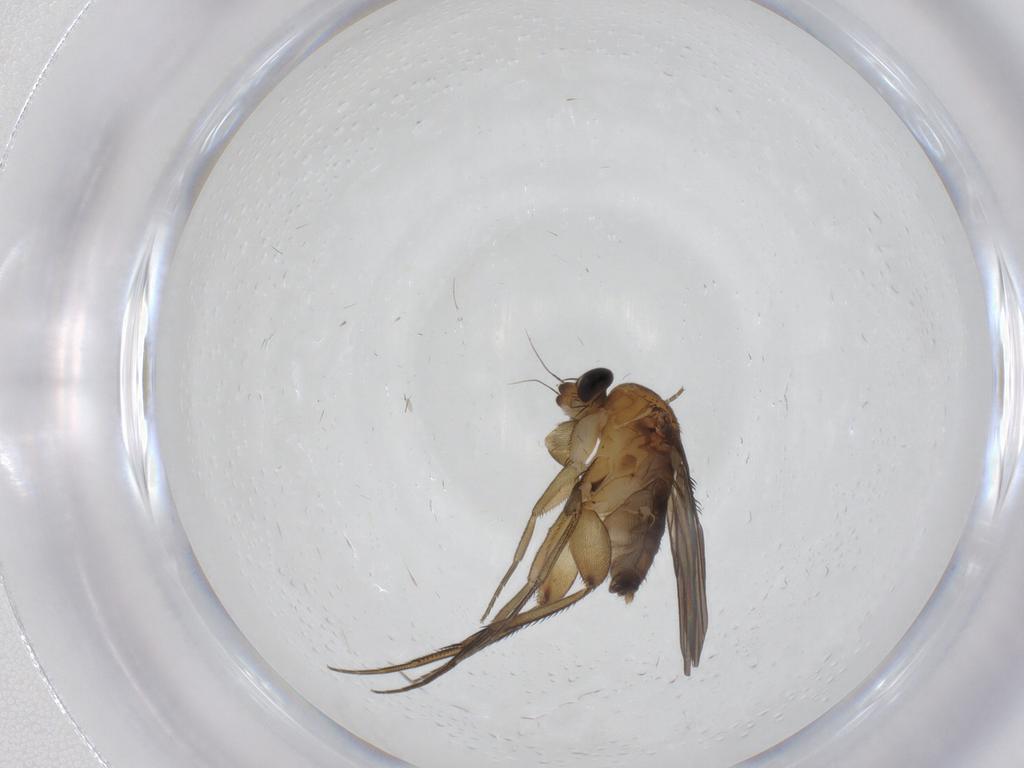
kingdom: Animalia
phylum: Arthropoda
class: Insecta
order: Diptera
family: Phoridae
